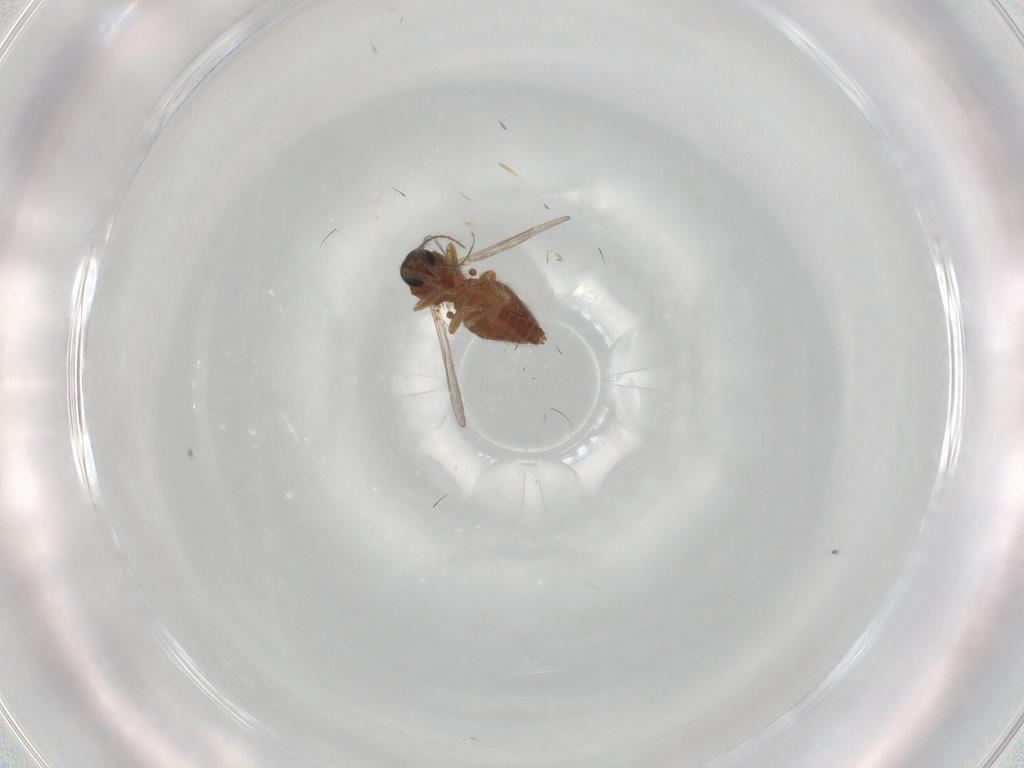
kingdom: Animalia
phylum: Arthropoda
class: Insecta
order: Diptera
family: Ceratopogonidae
